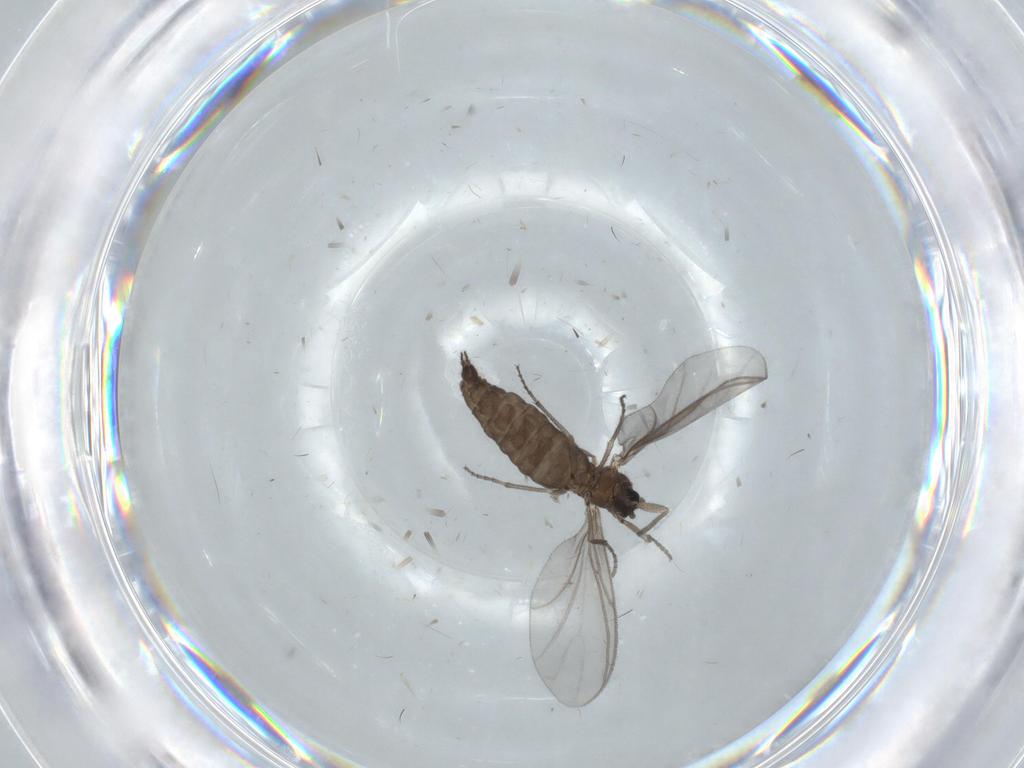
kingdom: Animalia
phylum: Arthropoda
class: Insecta
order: Diptera
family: Sciaridae
